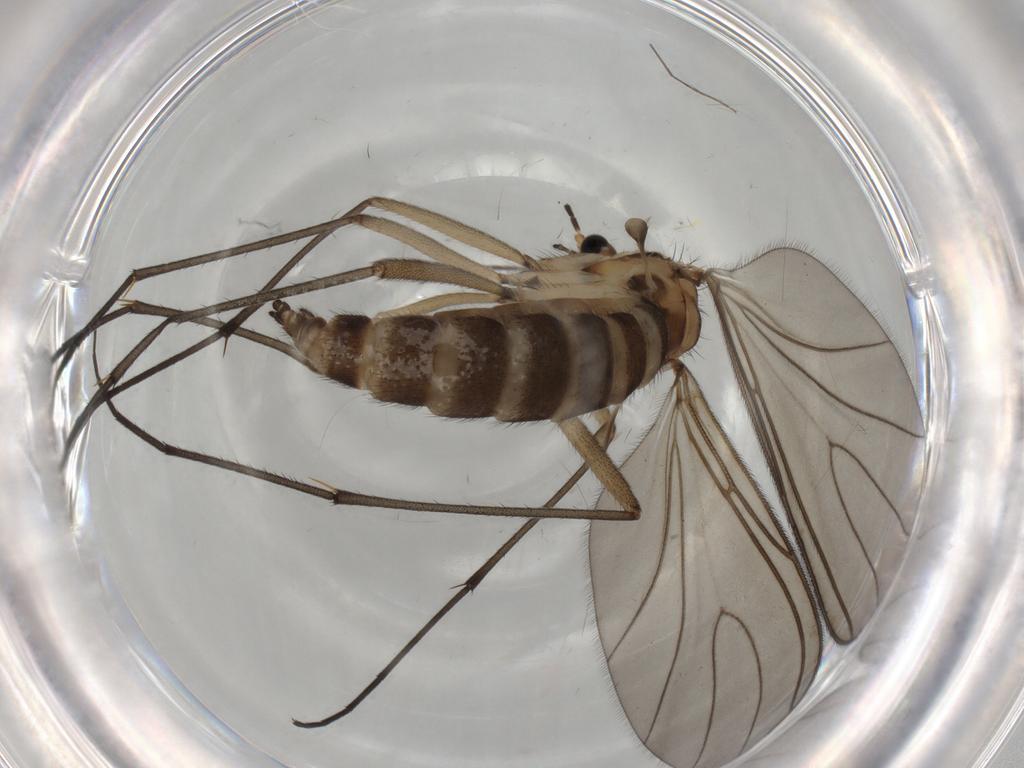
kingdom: Animalia
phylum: Arthropoda
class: Insecta
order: Diptera
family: Sciaridae
